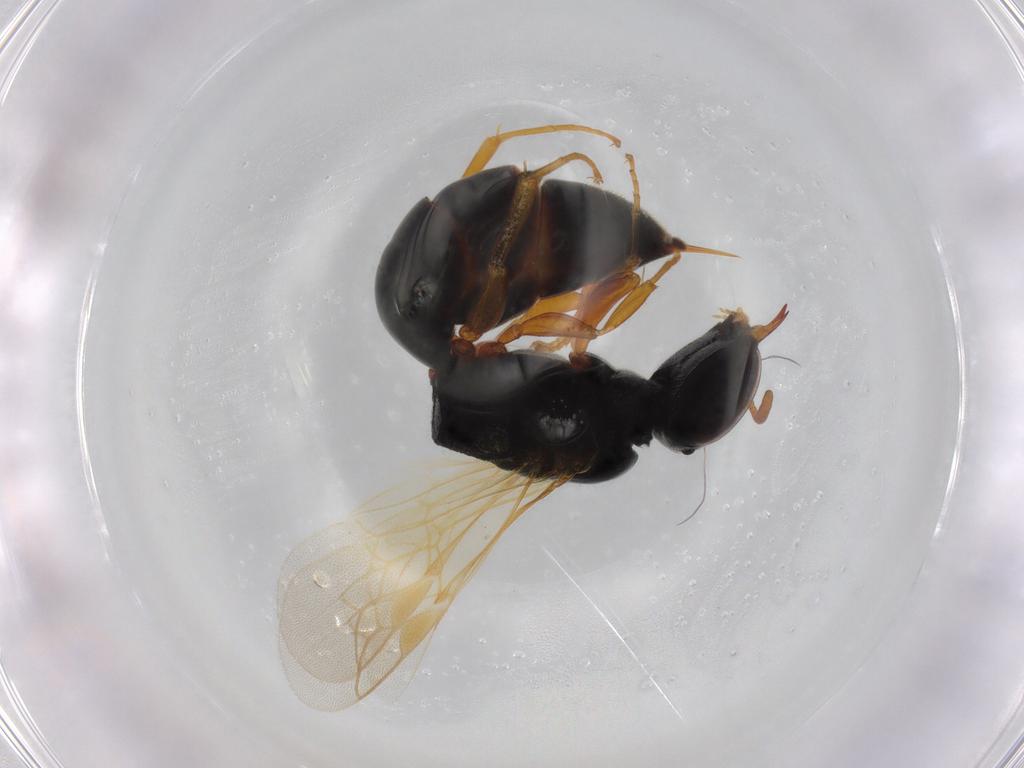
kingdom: Animalia
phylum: Arthropoda
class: Insecta
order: Hymenoptera
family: Pemphredonidae
